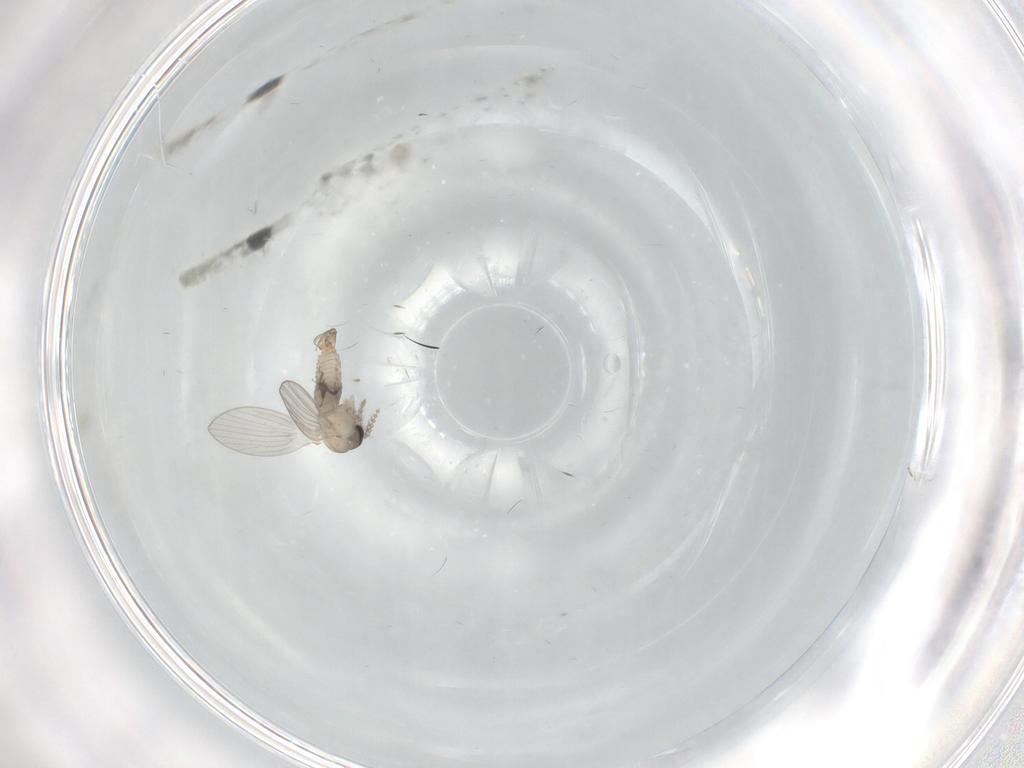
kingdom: Animalia
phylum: Arthropoda
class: Insecta
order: Diptera
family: Psychodidae
